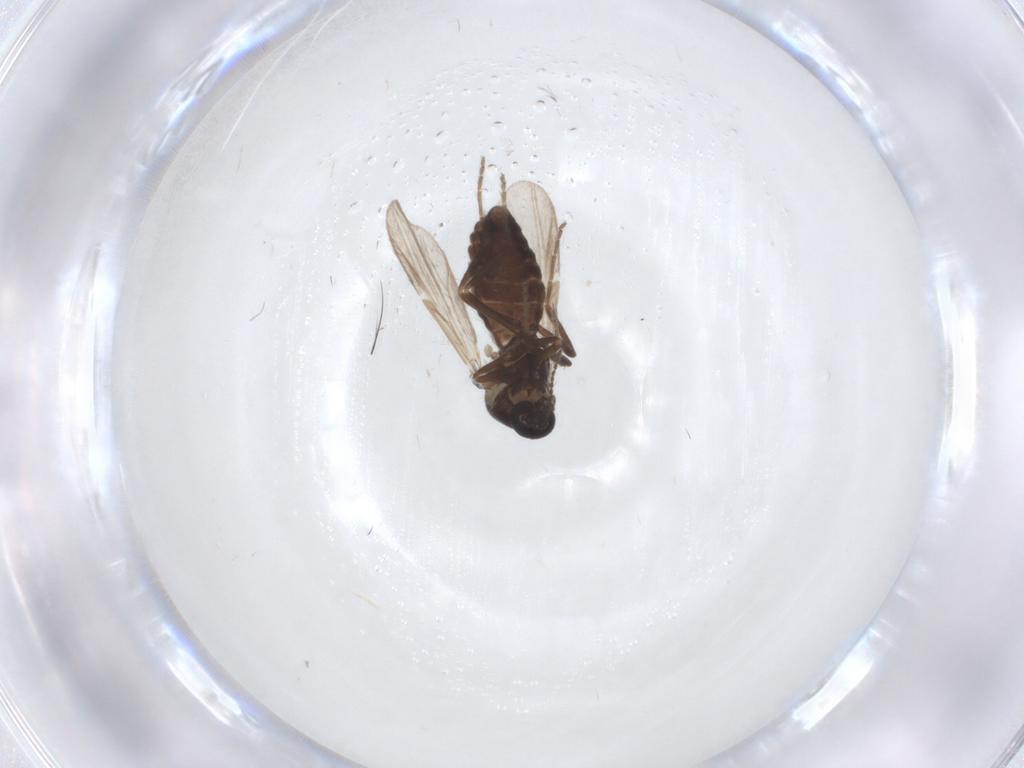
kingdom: Animalia
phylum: Arthropoda
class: Insecta
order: Diptera
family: Ceratopogonidae
